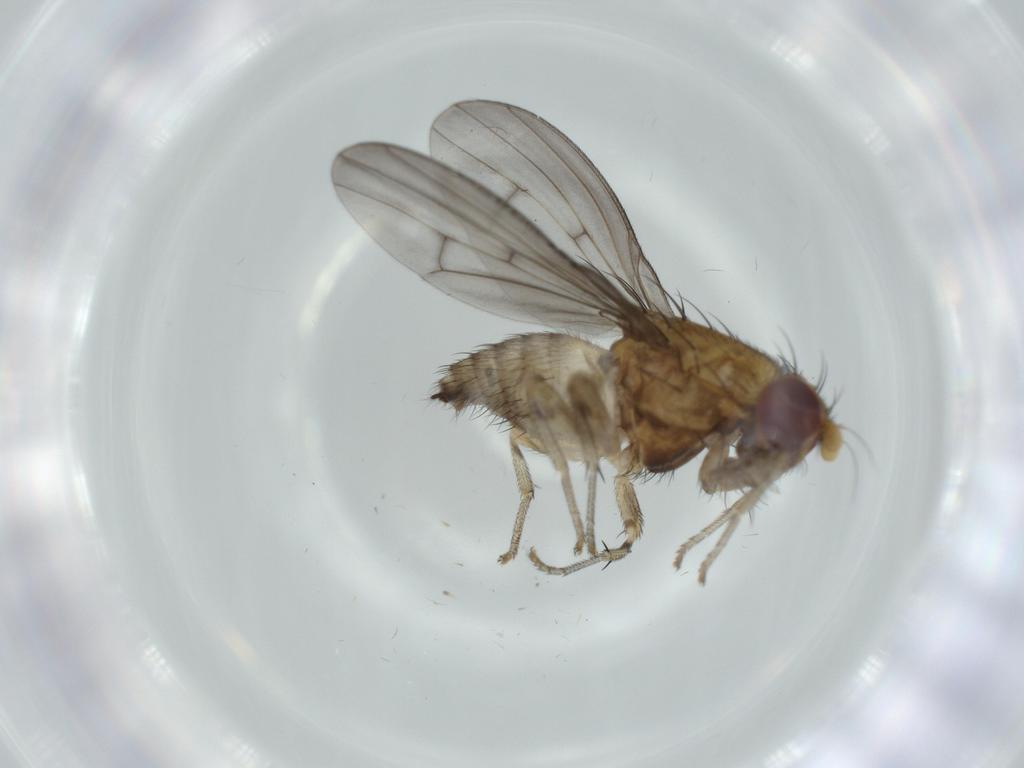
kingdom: Animalia
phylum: Arthropoda
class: Insecta
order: Diptera
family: Lauxaniidae
